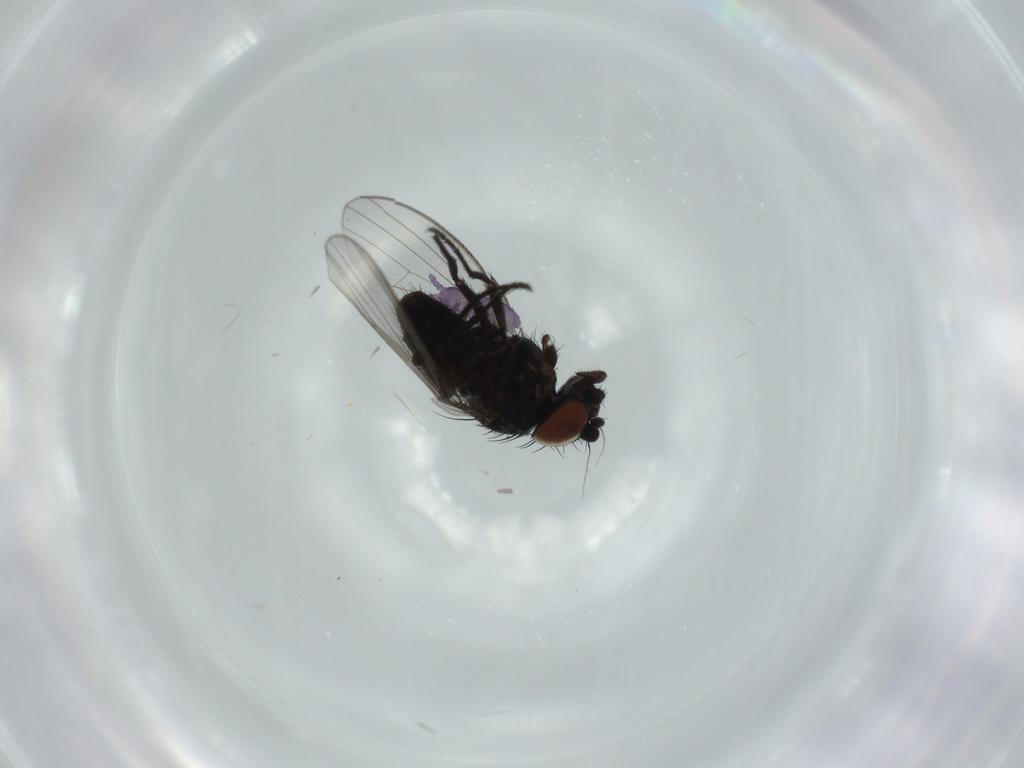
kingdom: Animalia
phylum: Arthropoda
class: Insecta
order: Diptera
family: Milichiidae
